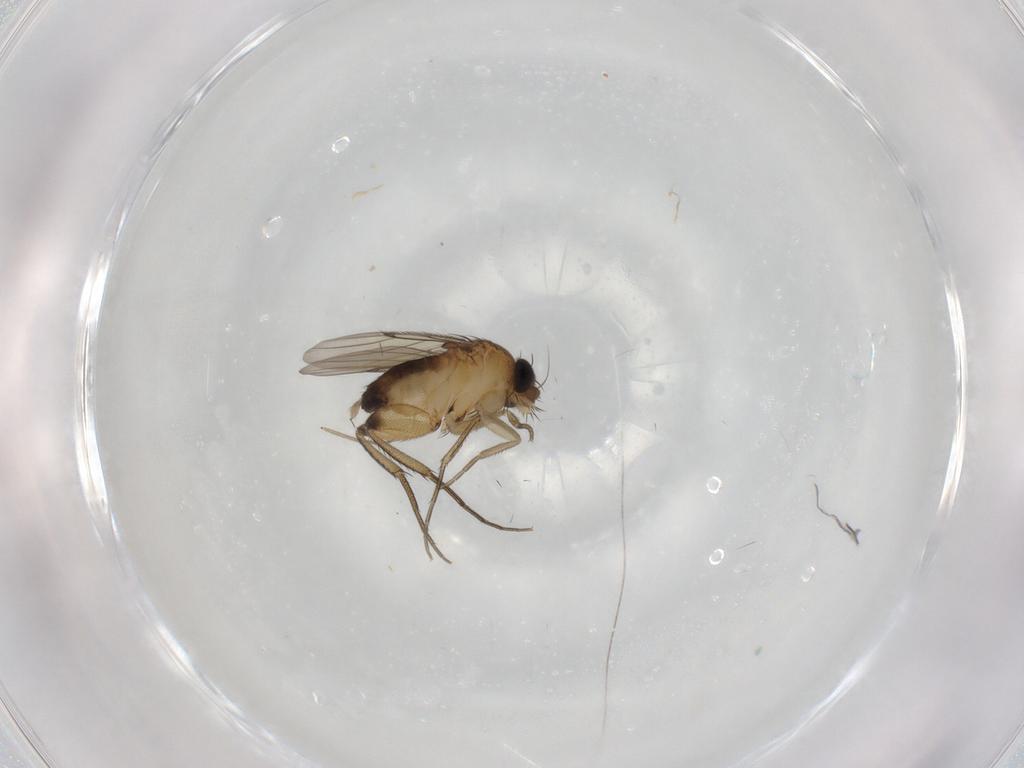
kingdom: Animalia
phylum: Arthropoda
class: Insecta
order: Diptera
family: Phoridae
